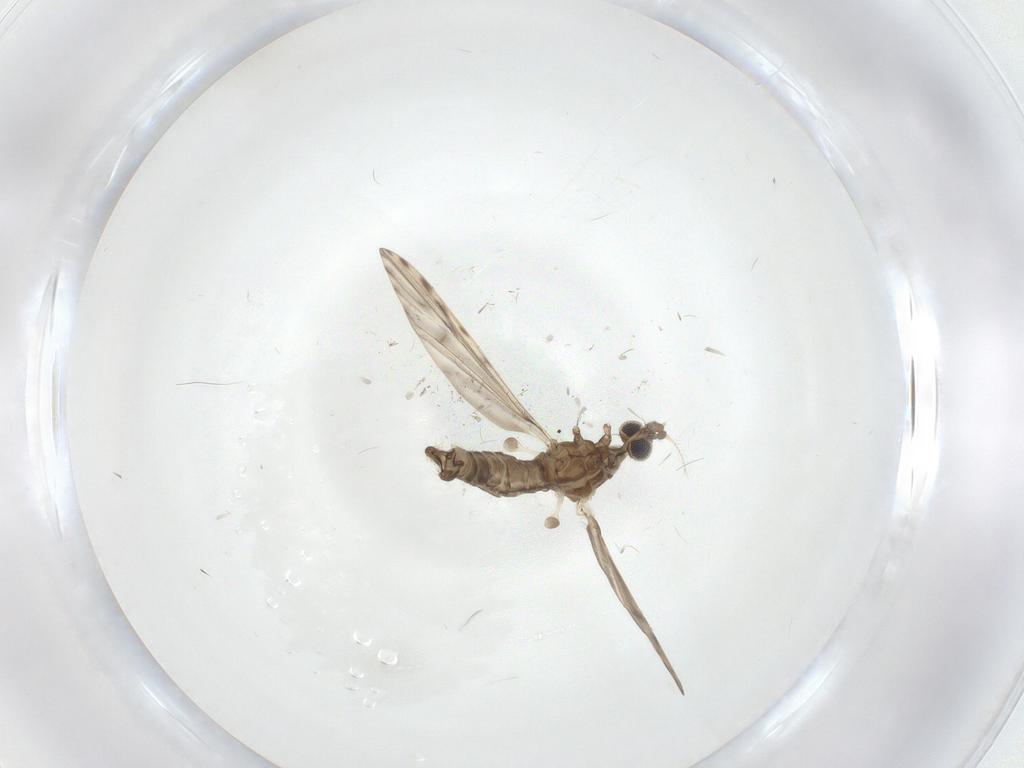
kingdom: Animalia
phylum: Arthropoda
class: Insecta
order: Diptera
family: Limoniidae
